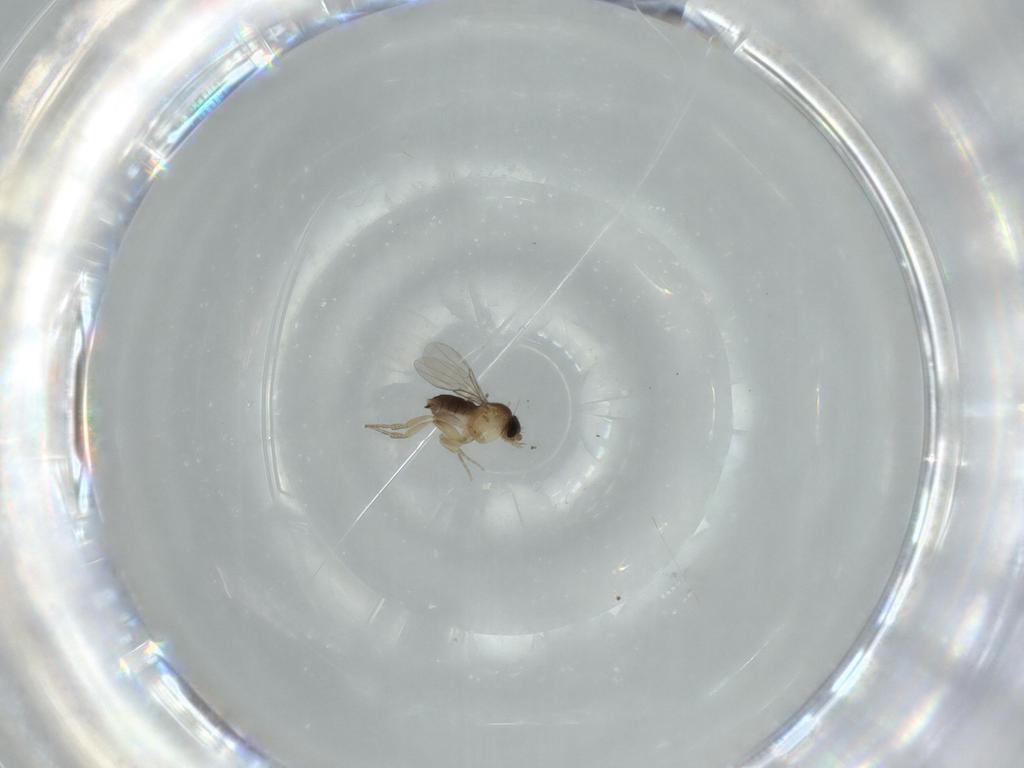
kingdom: Animalia
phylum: Arthropoda
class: Insecta
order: Diptera
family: Phoridae
